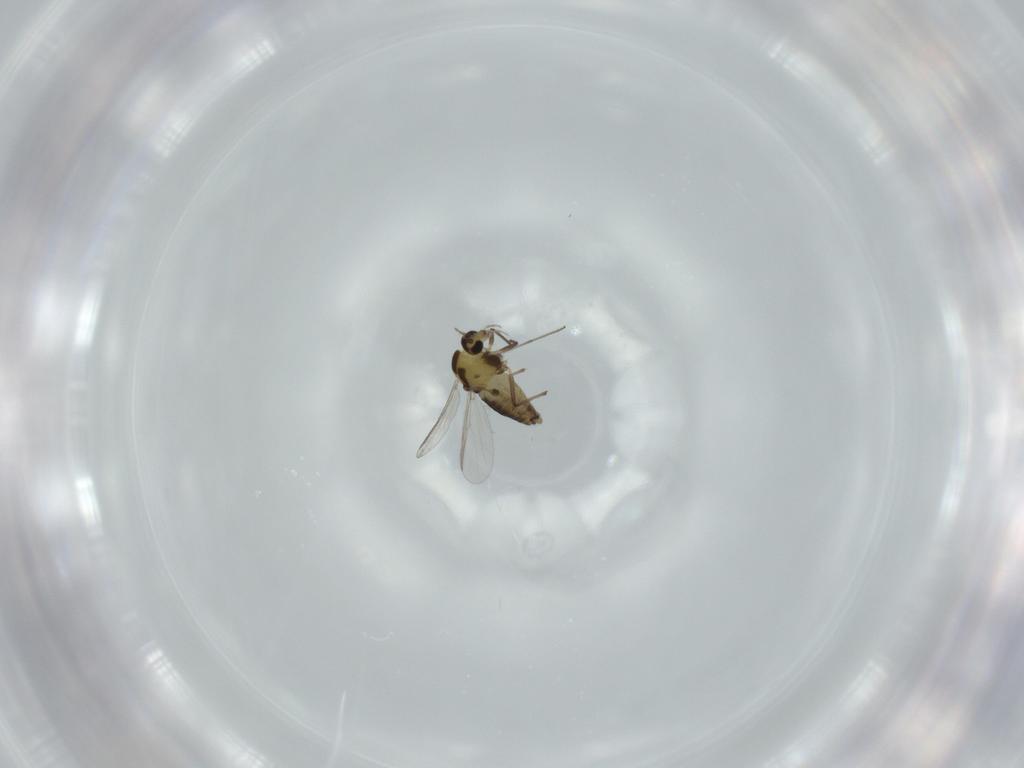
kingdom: Animalia
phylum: Arthropoda
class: Insecta
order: Diptera
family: Chironomidae
